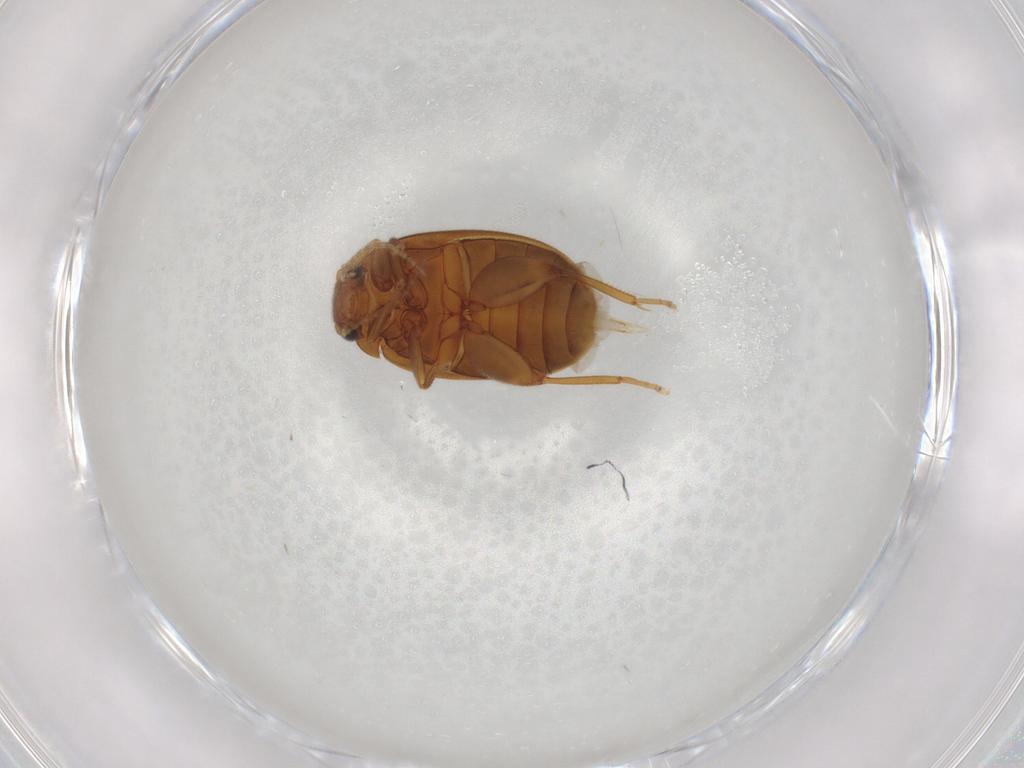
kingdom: Animalia
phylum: Arthropoda
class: Insecta
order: Coleoptera
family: Scirtidae
